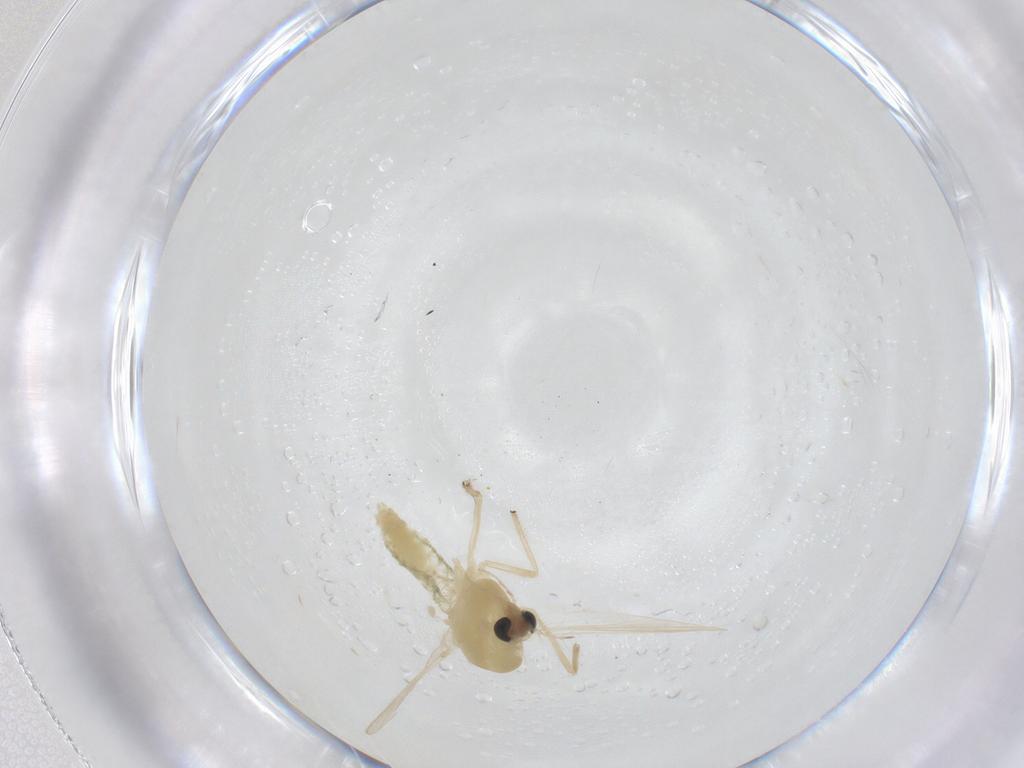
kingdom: Animalia
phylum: Arthropoda
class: Insecta
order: Diptera
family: Chironomidae
